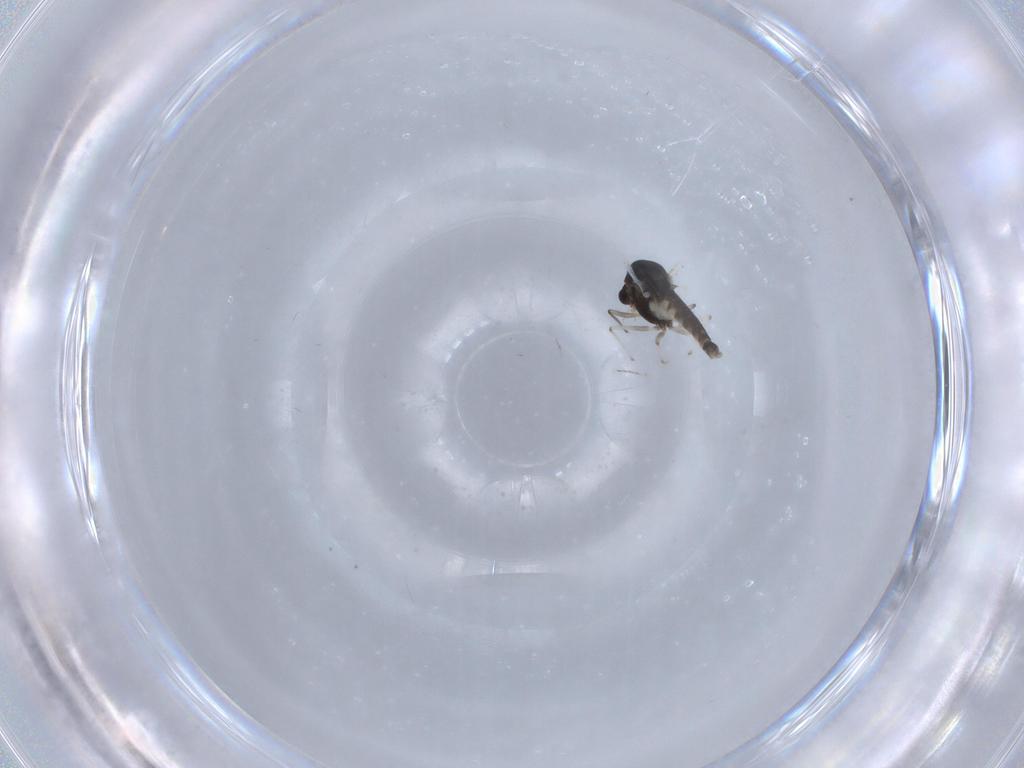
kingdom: Animalia
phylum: Arthropoda
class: Insecta
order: Diptera
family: Chironomidae
